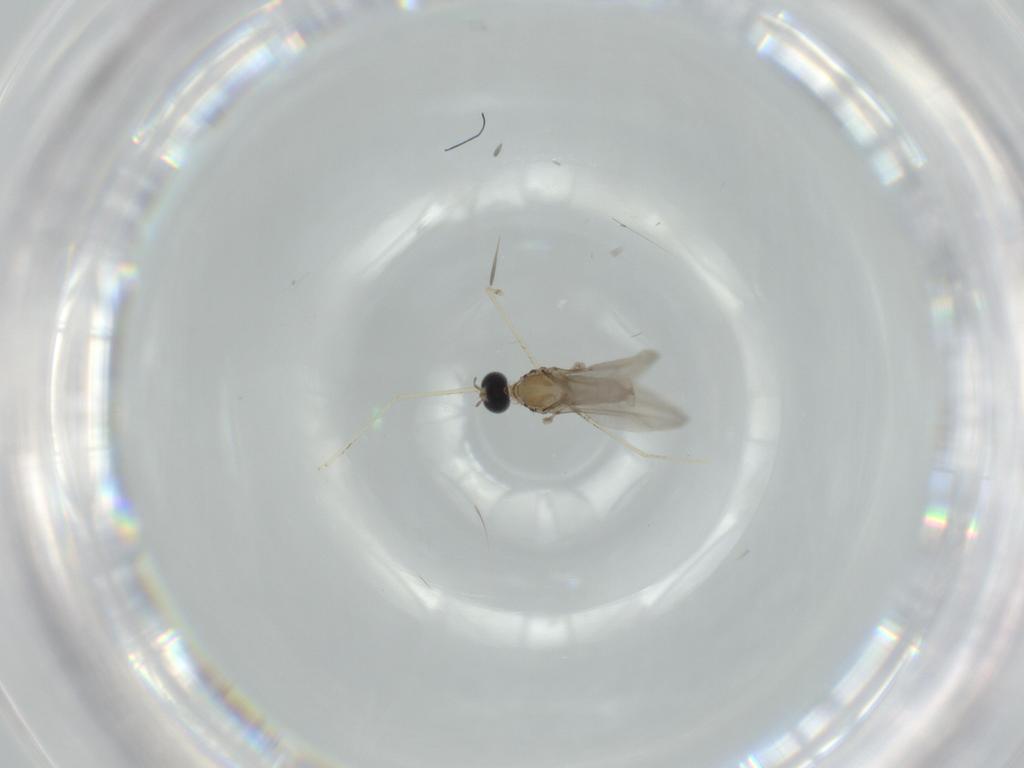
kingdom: Animalia
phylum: Arthropoda
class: Insecta
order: Diptera
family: Cecidomyiidae
